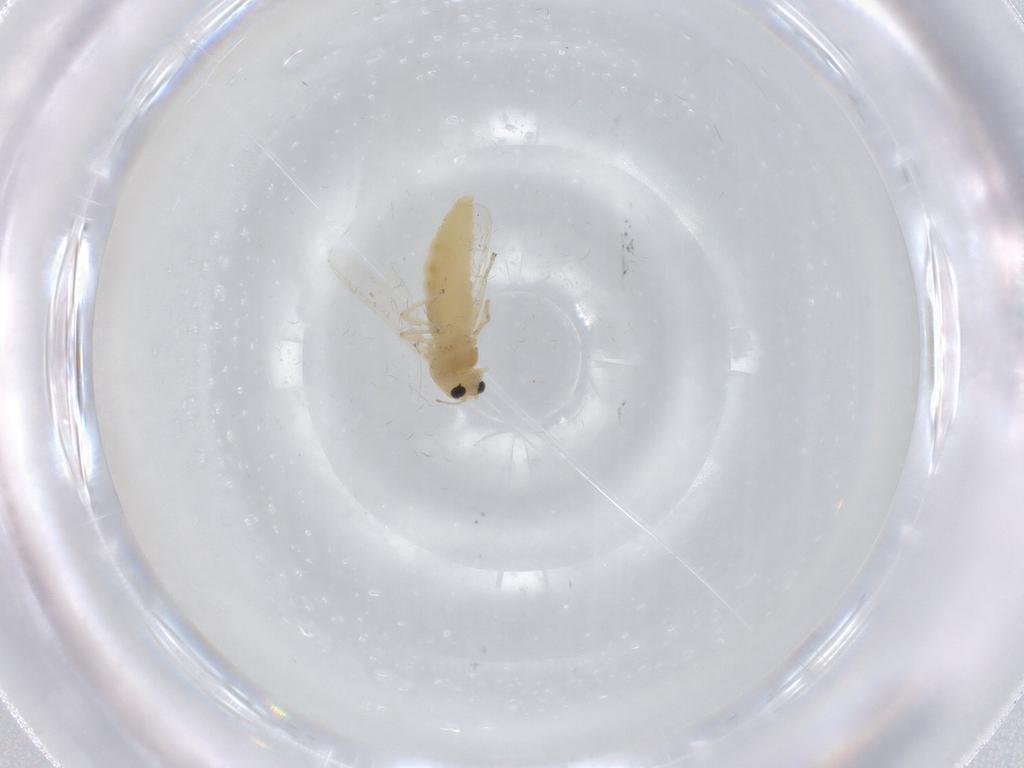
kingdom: Animalia
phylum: Arthropoda
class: Insecta
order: Diptera
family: Chironomidae
